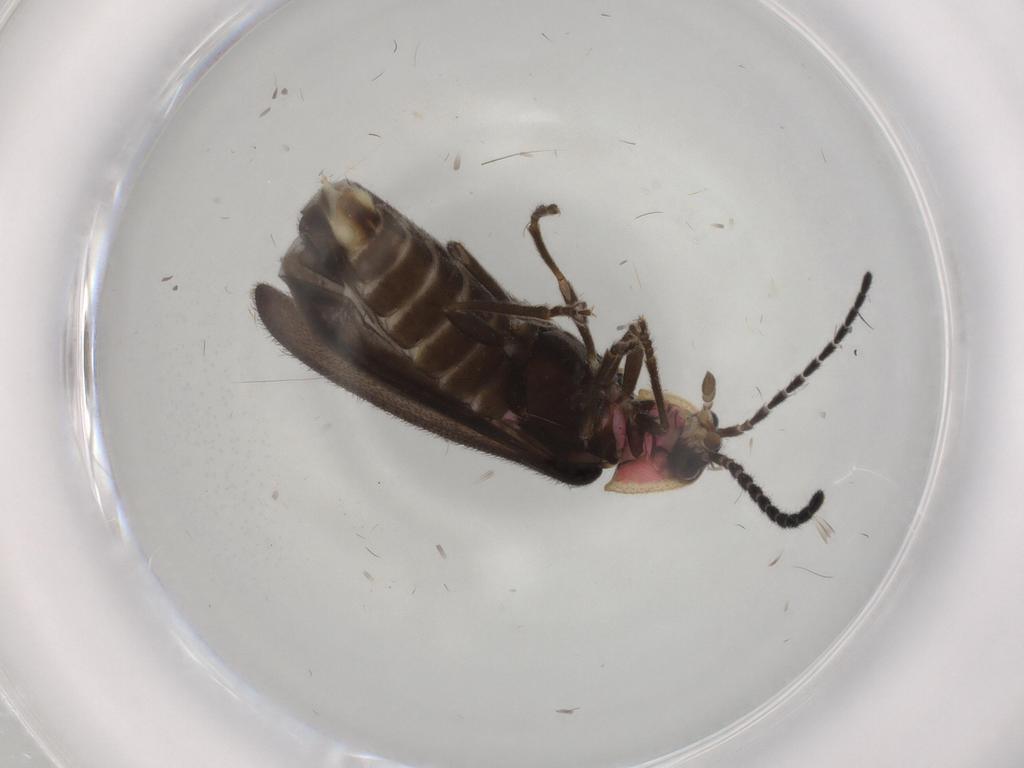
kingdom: Animalia
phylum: Arthropoda
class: Insecta
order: Coleoptera
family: Lampyridae
